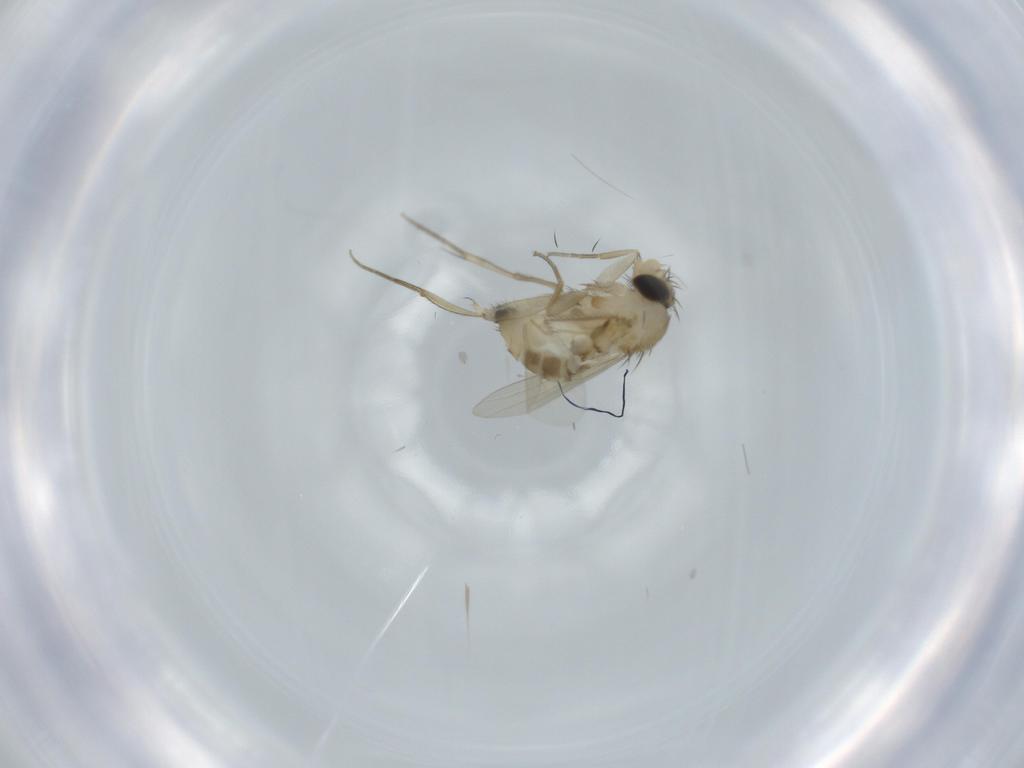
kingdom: Animalia
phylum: Arthropoda
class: Insecta
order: Diptera
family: Phoridae
